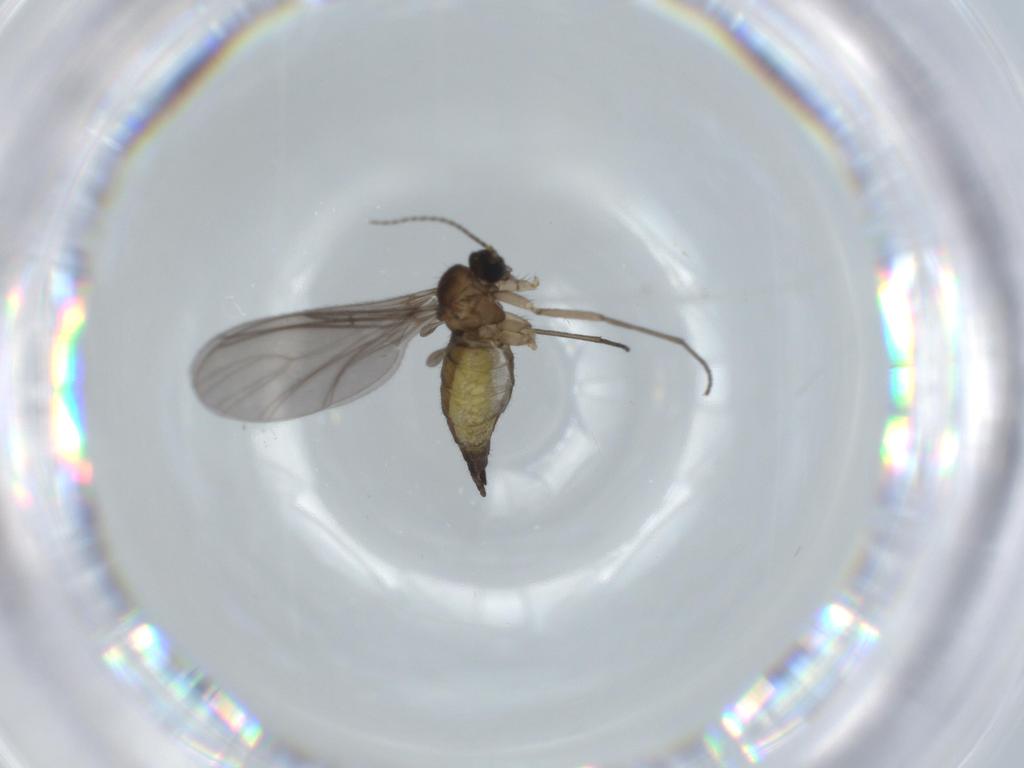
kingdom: Animalia
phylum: Arthropoda
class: Insecta
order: Diptera
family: Sciaridae
